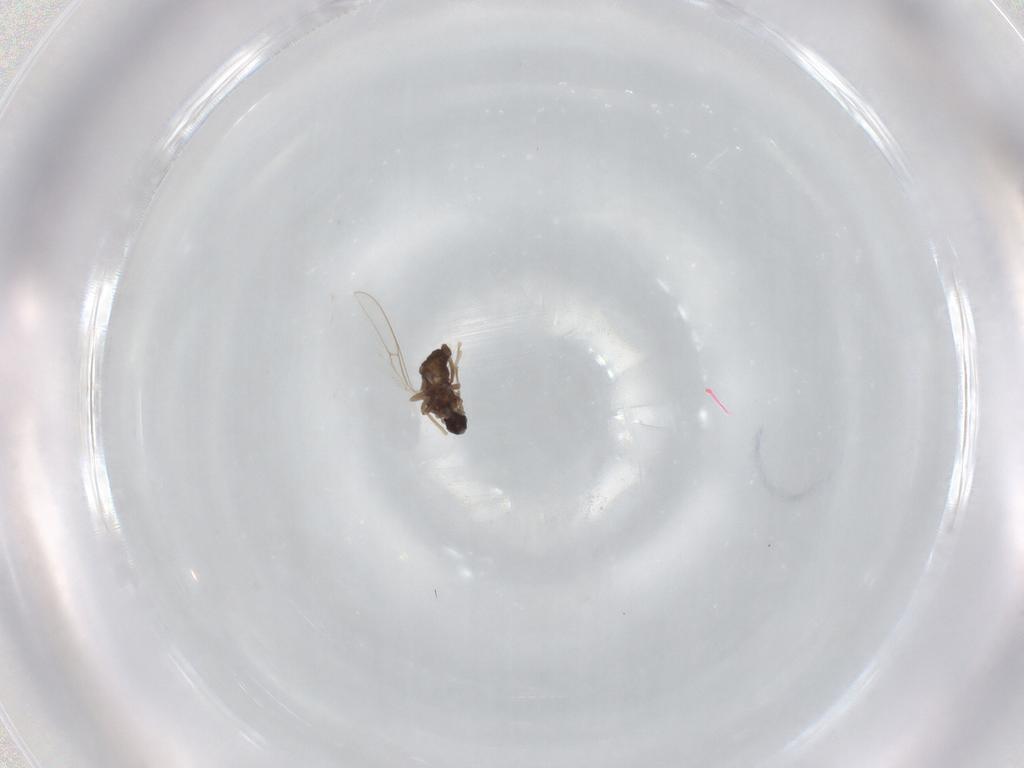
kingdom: Animalia
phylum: Arthropoda
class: Insecta
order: Diptera
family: Cecidomyiidae
